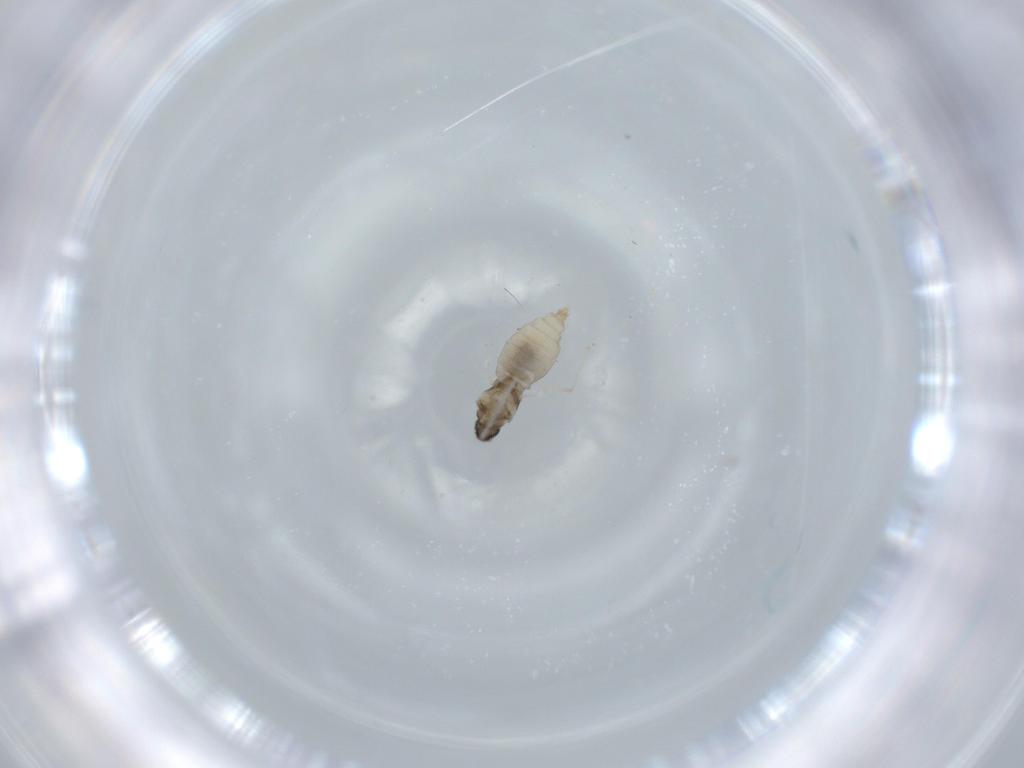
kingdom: Animalia
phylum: Arthropoda
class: Insecta
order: Diptera
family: Cecidomyiidae
